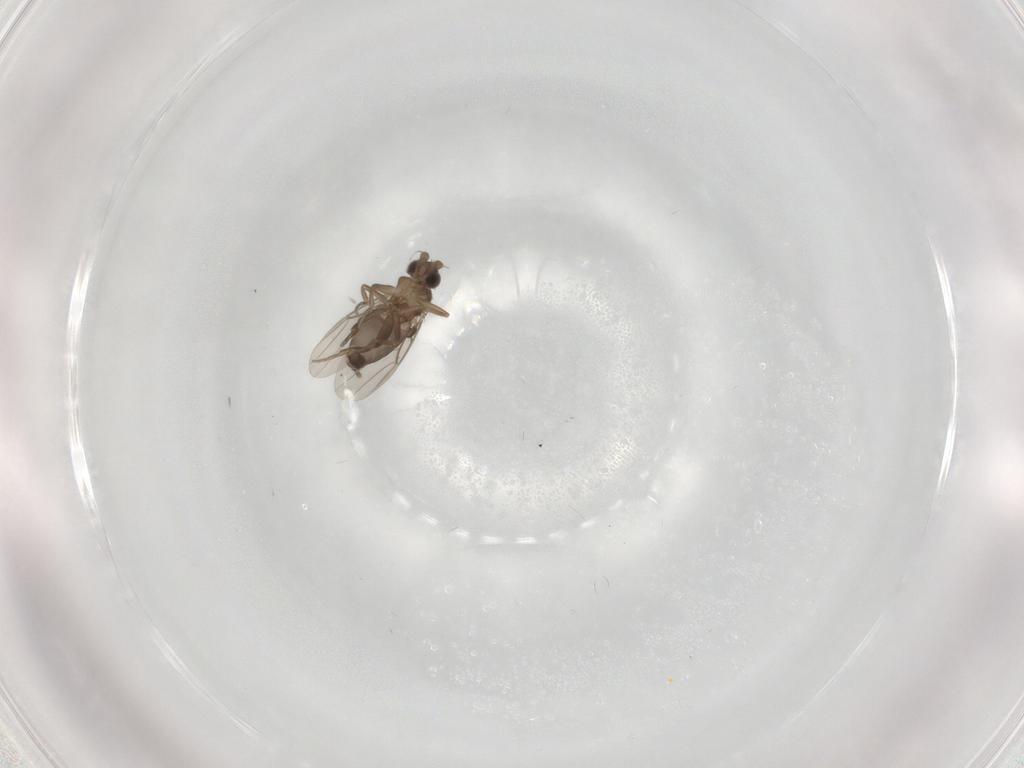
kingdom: Animalia
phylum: Arthropoda
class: Insecta
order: Diptera
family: Phoridae
